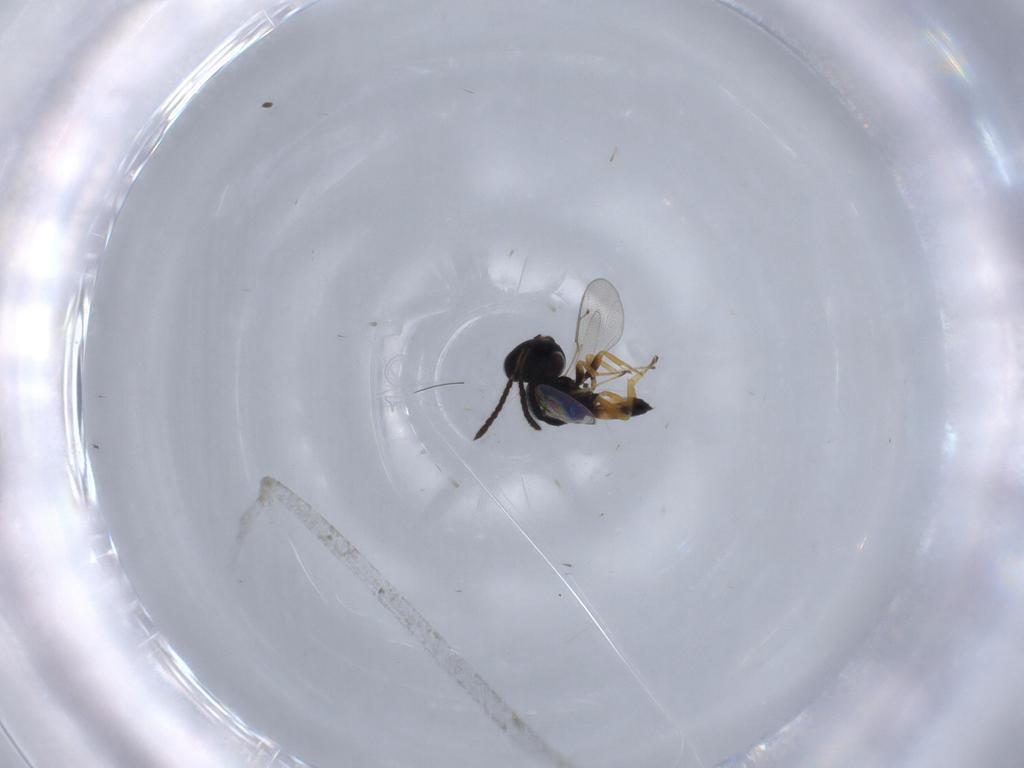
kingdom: Animalia
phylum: Arthropoda
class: Insecta
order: Hymenoptera
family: Pteromalidae
